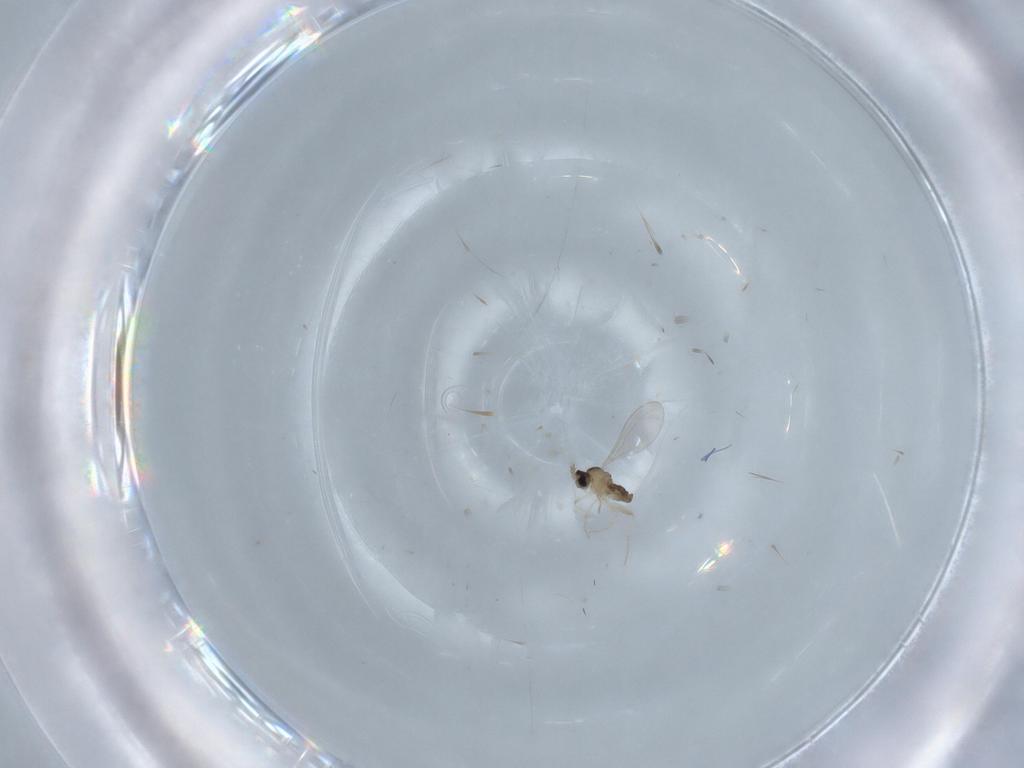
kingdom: Animalia
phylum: Arthropoda
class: Insecta
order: Diptera
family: Cecidomyiidae
